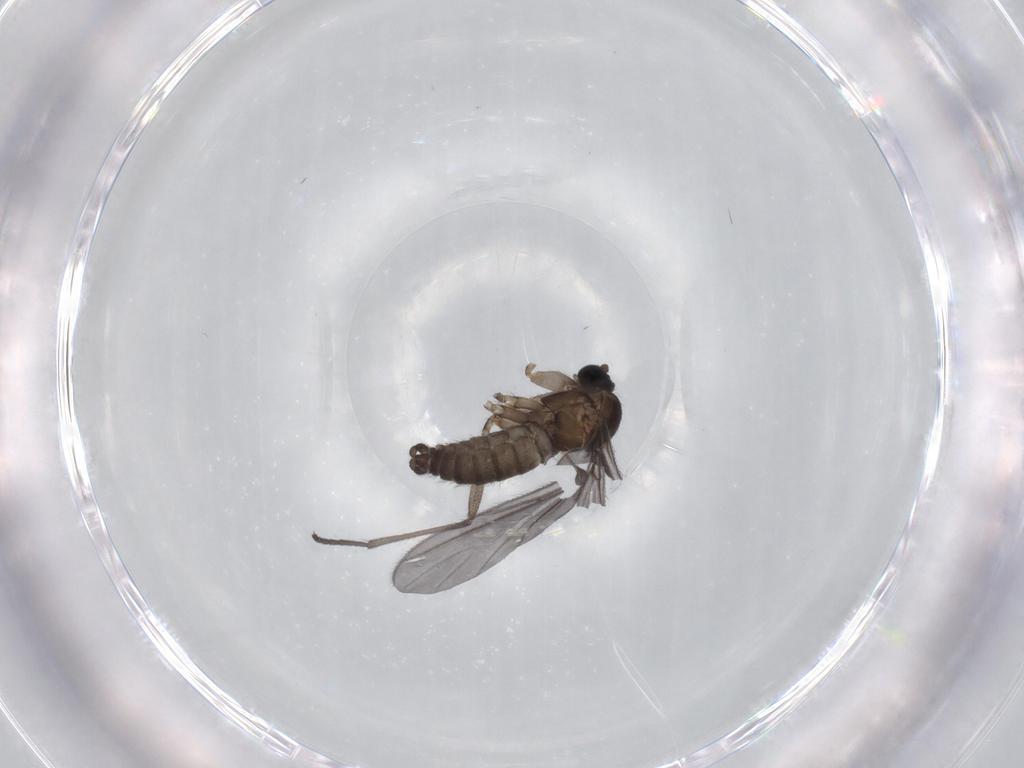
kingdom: Animalia
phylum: Arthropoda
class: Insecta
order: Diptera
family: Sciaridae
